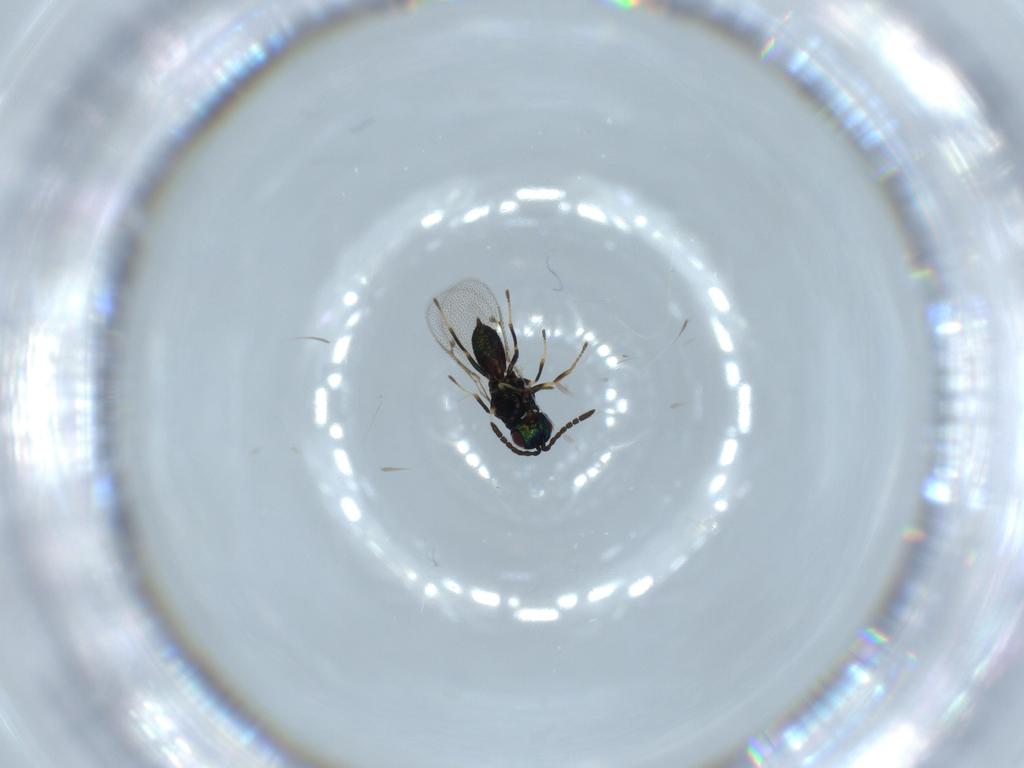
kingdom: Animalia
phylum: Arthropoda
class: Insecta
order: Hymenoptera
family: Pteromalidae
